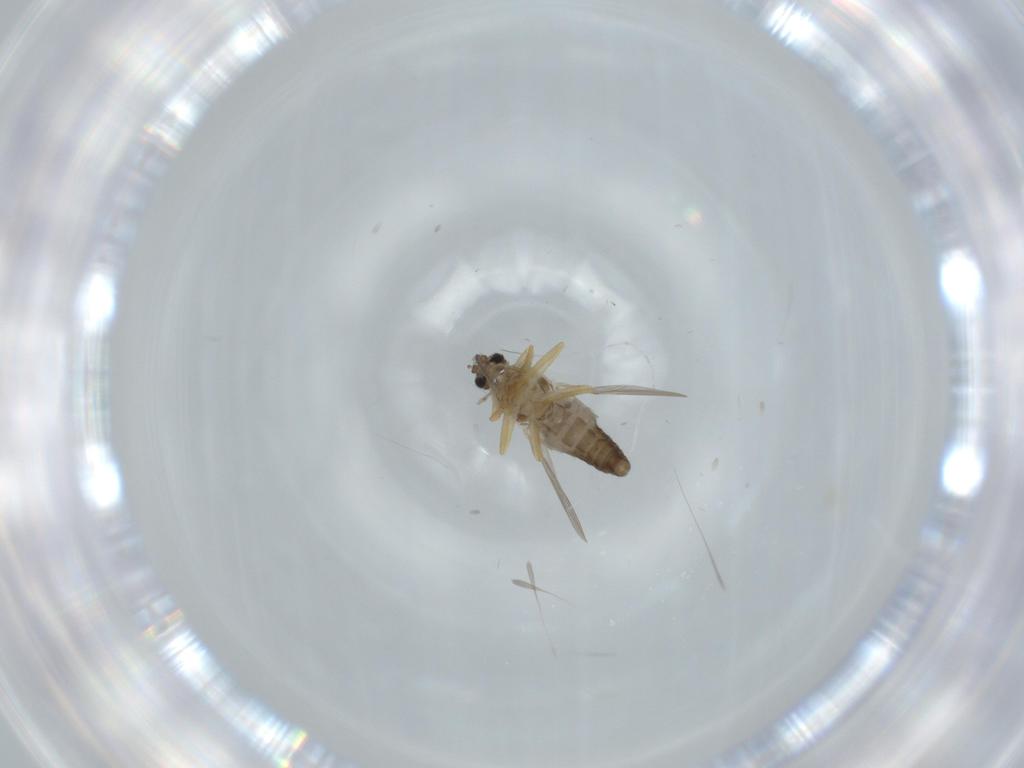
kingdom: Animalia
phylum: Arthropoda
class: Insecta
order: Diptera
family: Ceratopogonidae
